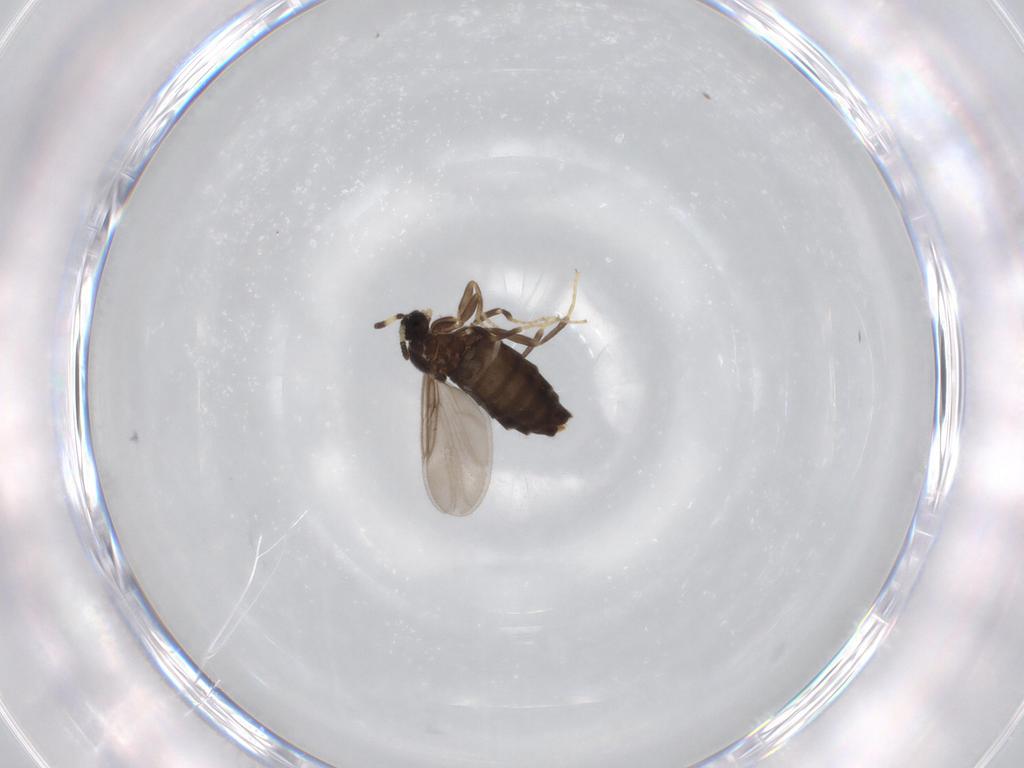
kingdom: Animalia
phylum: Arthropoda
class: Insecta
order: Diptera
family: Scatopsidae
